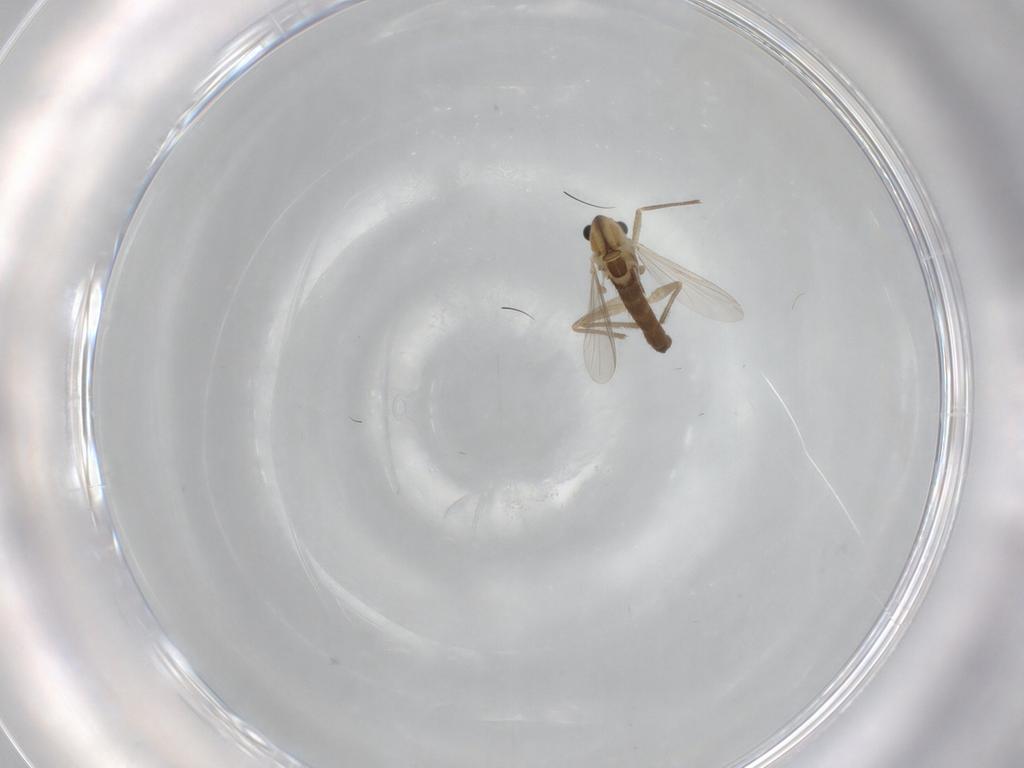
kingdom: Animalia
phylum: Arthropoda
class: Insecta
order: Diptera
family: Chironomidae
